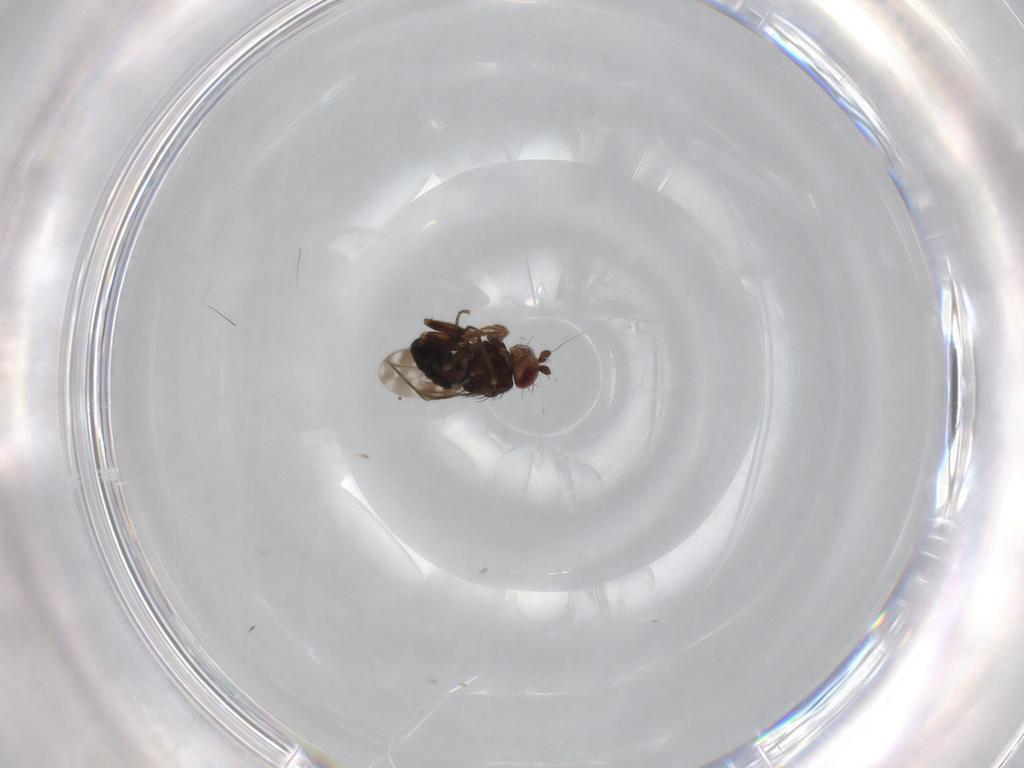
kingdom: Animalia
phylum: Arthropoda
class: Insecta
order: Diptera
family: Sphaeroceridae
